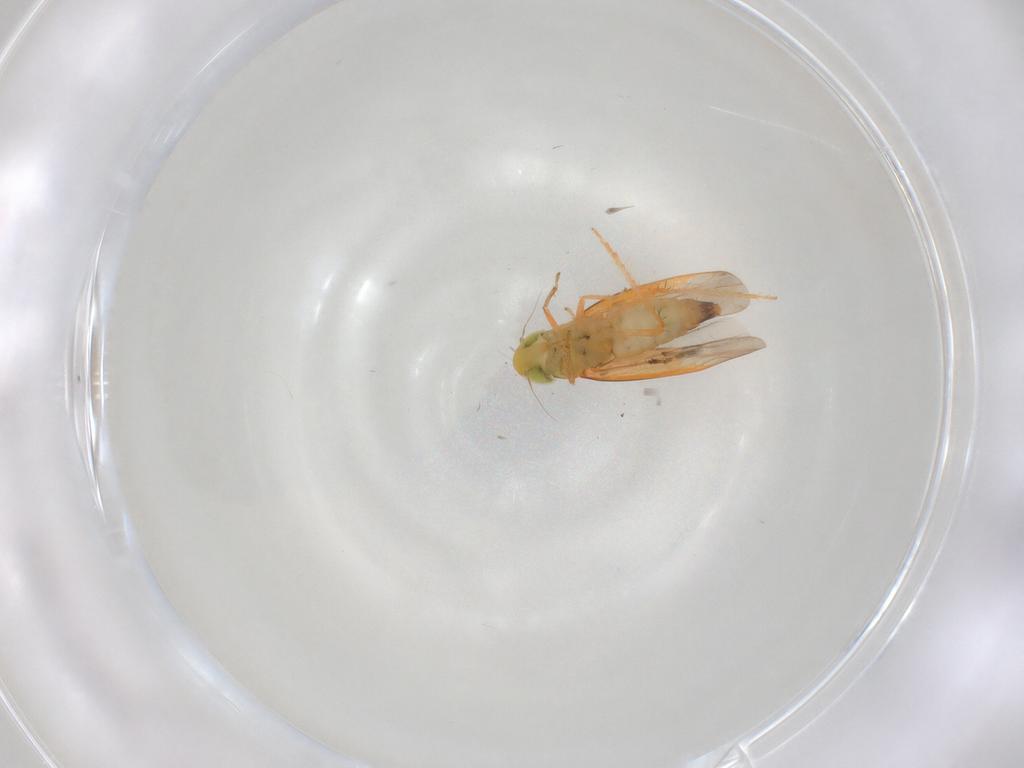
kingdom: Animalia
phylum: Arthropoda
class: Insecta
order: Hemiptera
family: Cicadellidae
